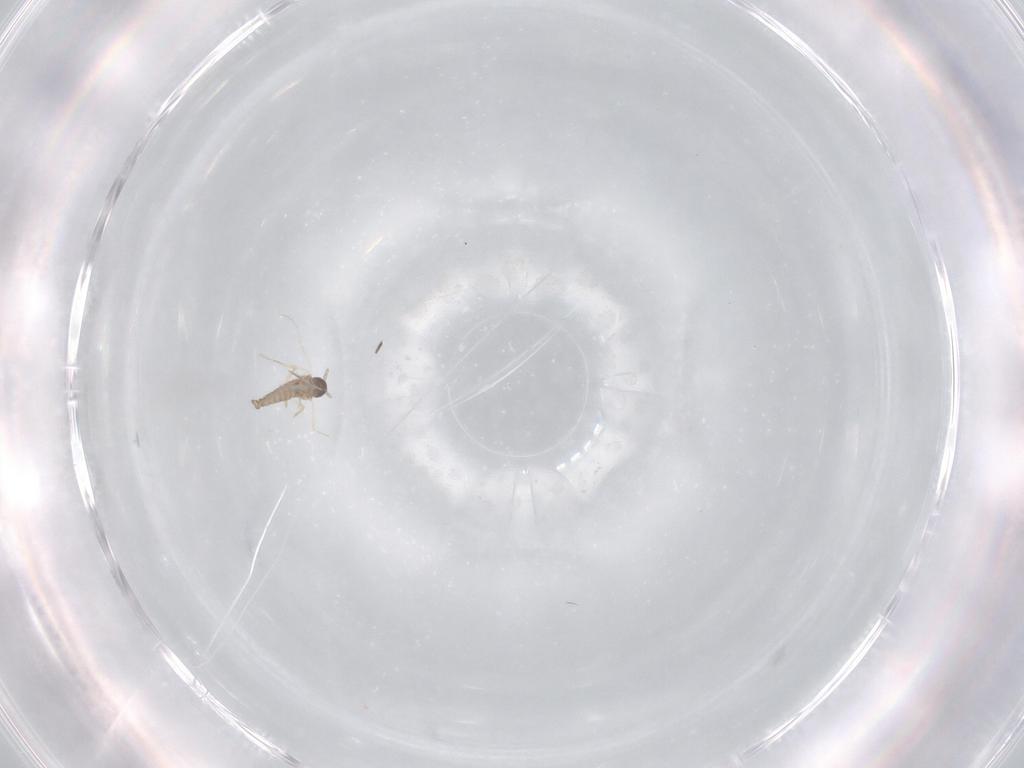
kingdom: Animalia
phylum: Arthropoda
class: Insecta
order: Diptera
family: Cecidomyiidae
